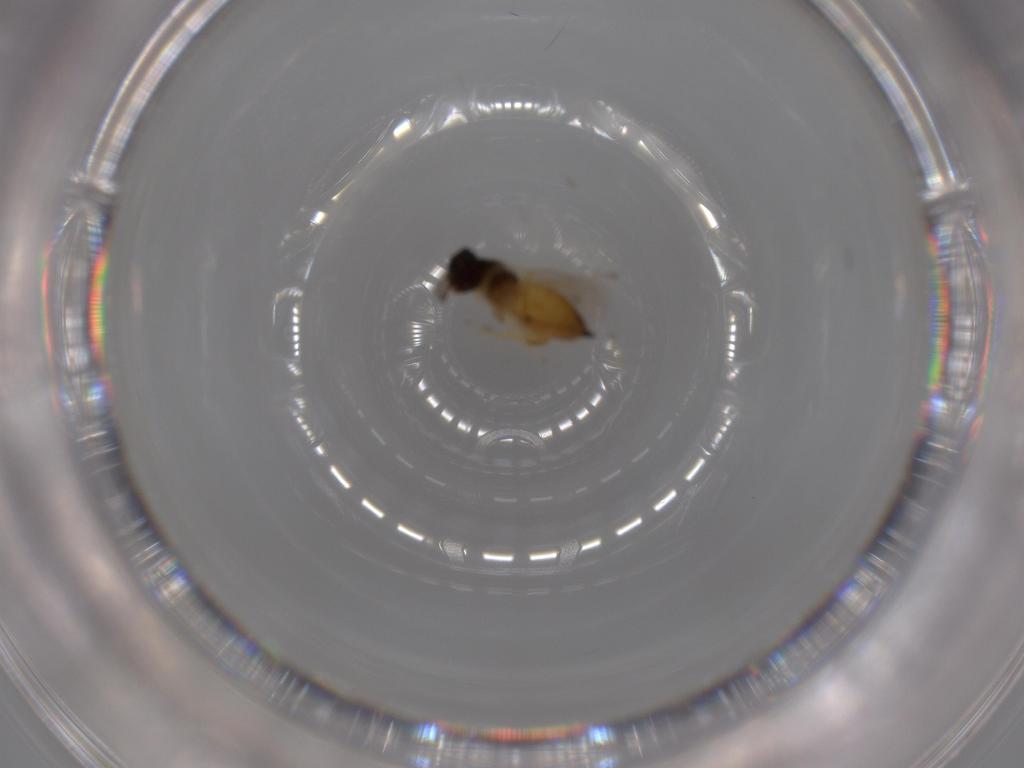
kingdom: Animalia
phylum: Arthropoda
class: Insecta
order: Hymenoptera
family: Eulophidae
